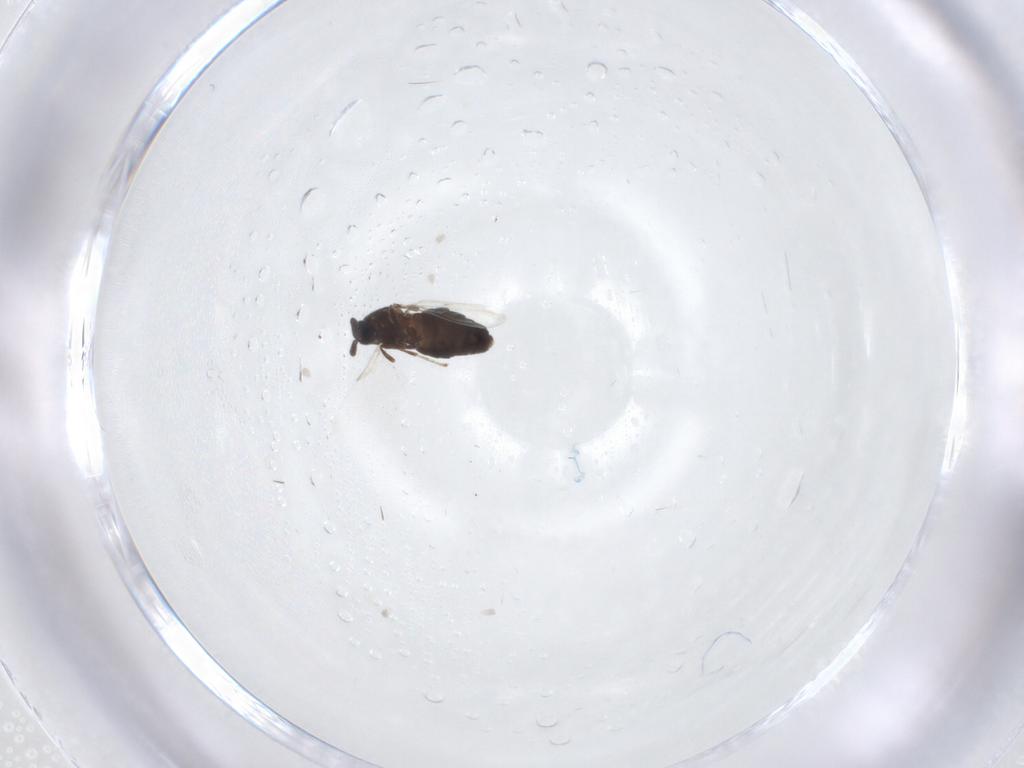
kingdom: Animalia
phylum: Arthropoda
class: Insecta
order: Diptera
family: Scatopsidae
